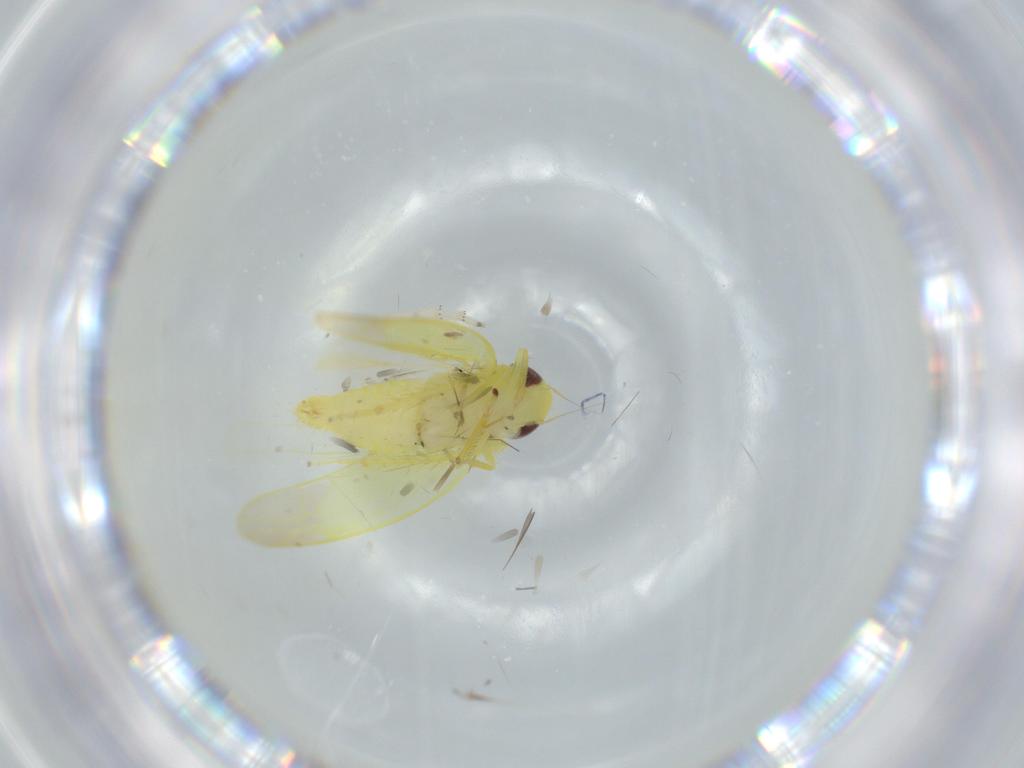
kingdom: Animalia
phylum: Arthropoda
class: Insecta
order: Hemiptera
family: Cicadellidae
